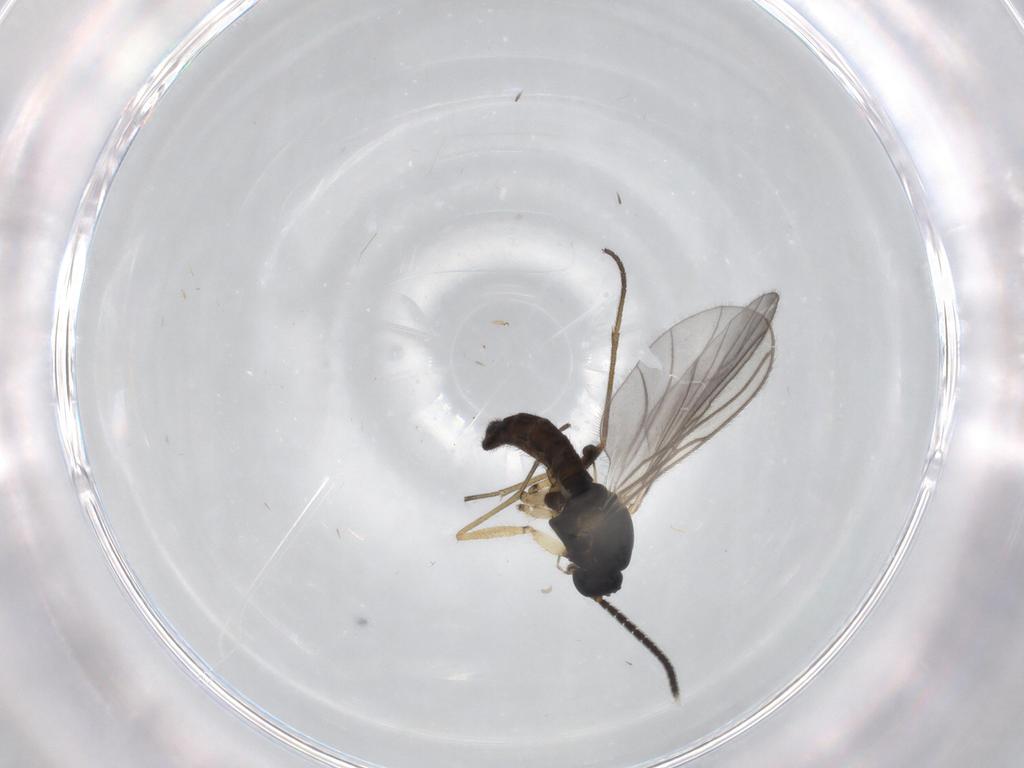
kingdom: Animalia
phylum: Arthropoda
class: Insecta
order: Diptera
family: Sciaridae
